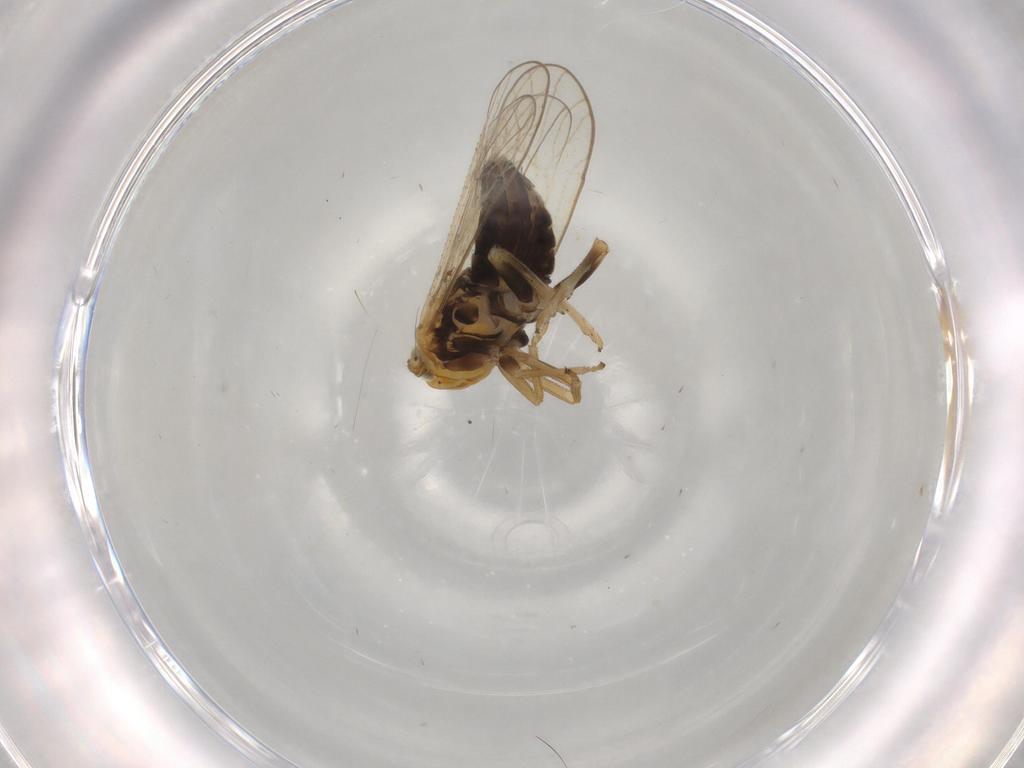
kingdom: Animalia
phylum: Arthropoda
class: Insecta
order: Hemiptera
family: Delphacidae
